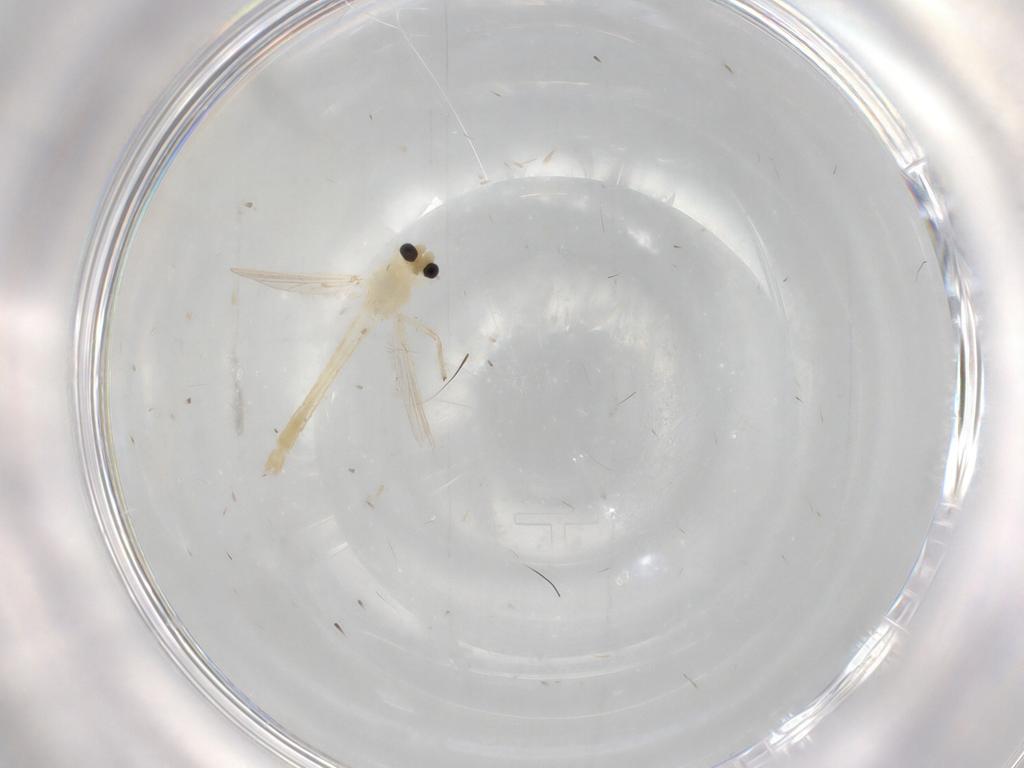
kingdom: Animalia
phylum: Arthropoda
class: Insecta
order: Diptera
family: Chironomidae
